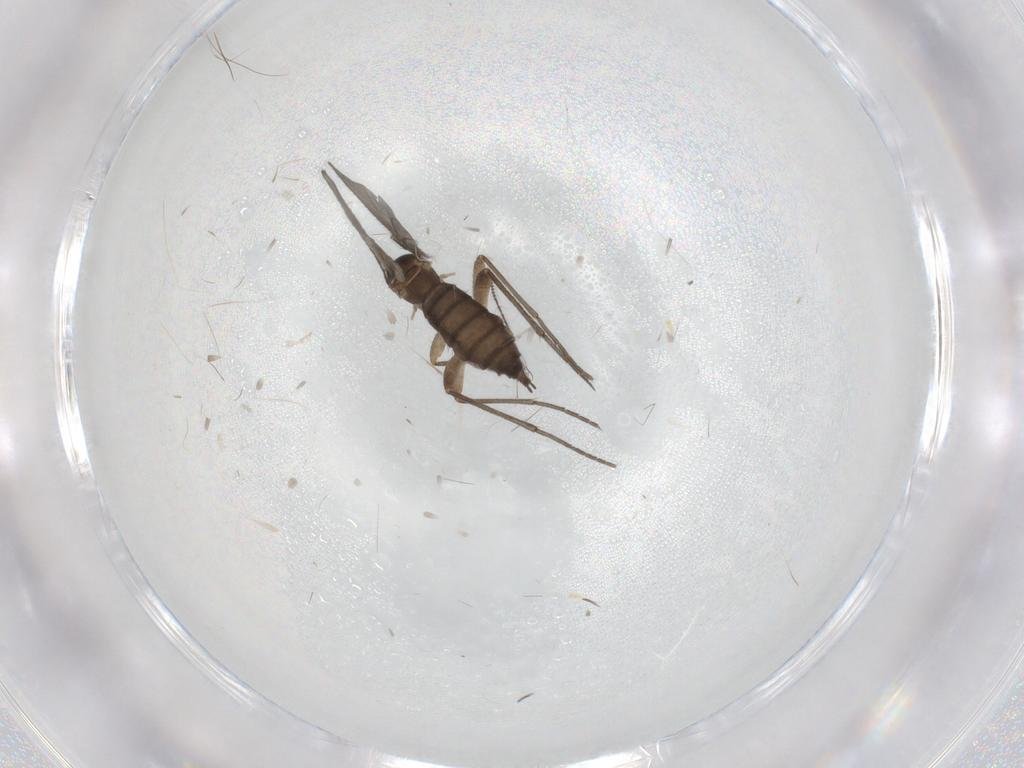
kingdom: Animalia
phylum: Arthropoda
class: Insecta
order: Diptera
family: Sciaridae
